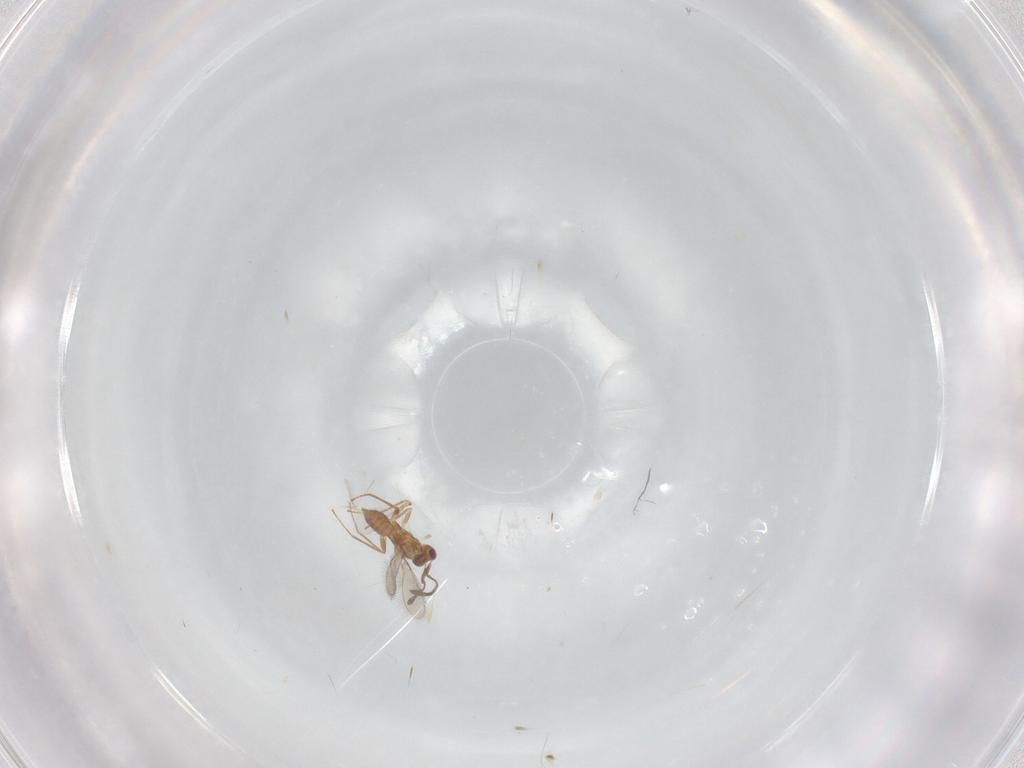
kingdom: Animalia
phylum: Arthropoda
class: Insecta
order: Hymenoptera
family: Scelionidae
